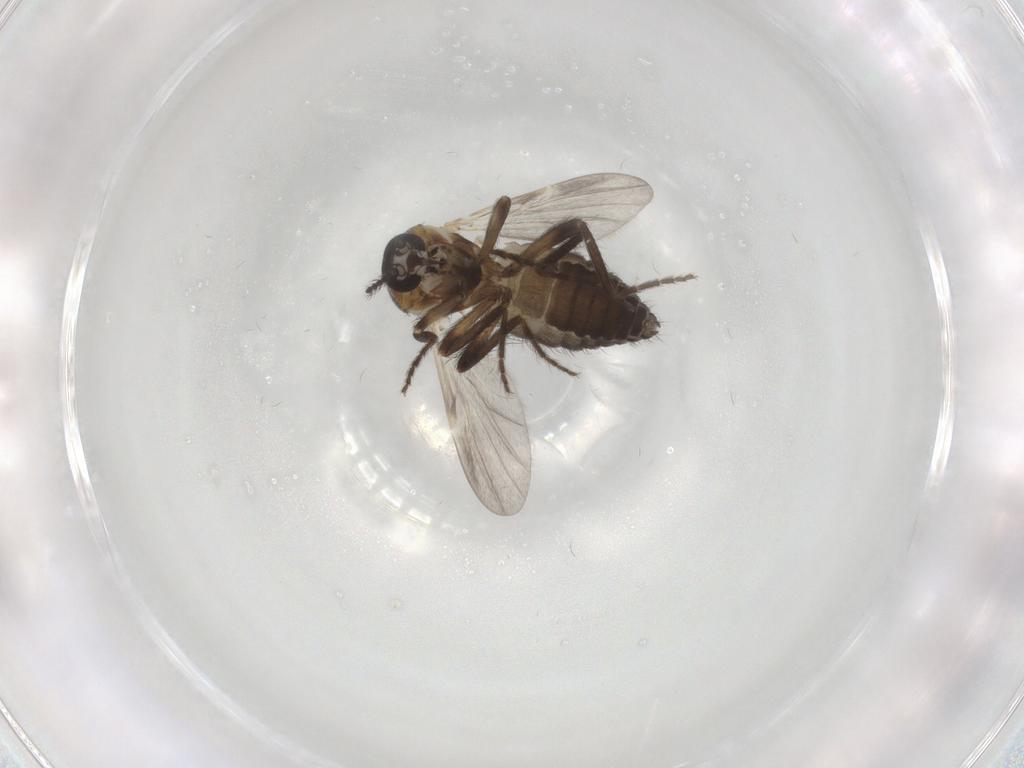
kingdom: Animalia
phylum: Arthropoda
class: Insecta
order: Diptera
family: Ceratopogonidae
